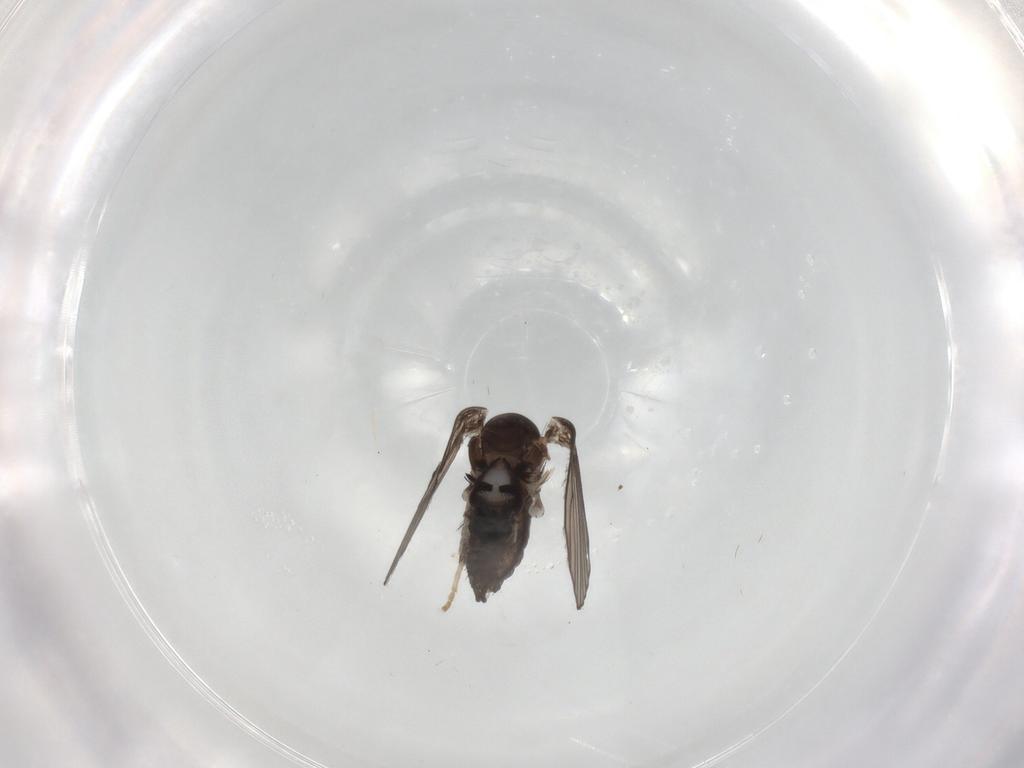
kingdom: Animalia
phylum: Arthropoda
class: Insecta
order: Diptera
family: Psychodidae
